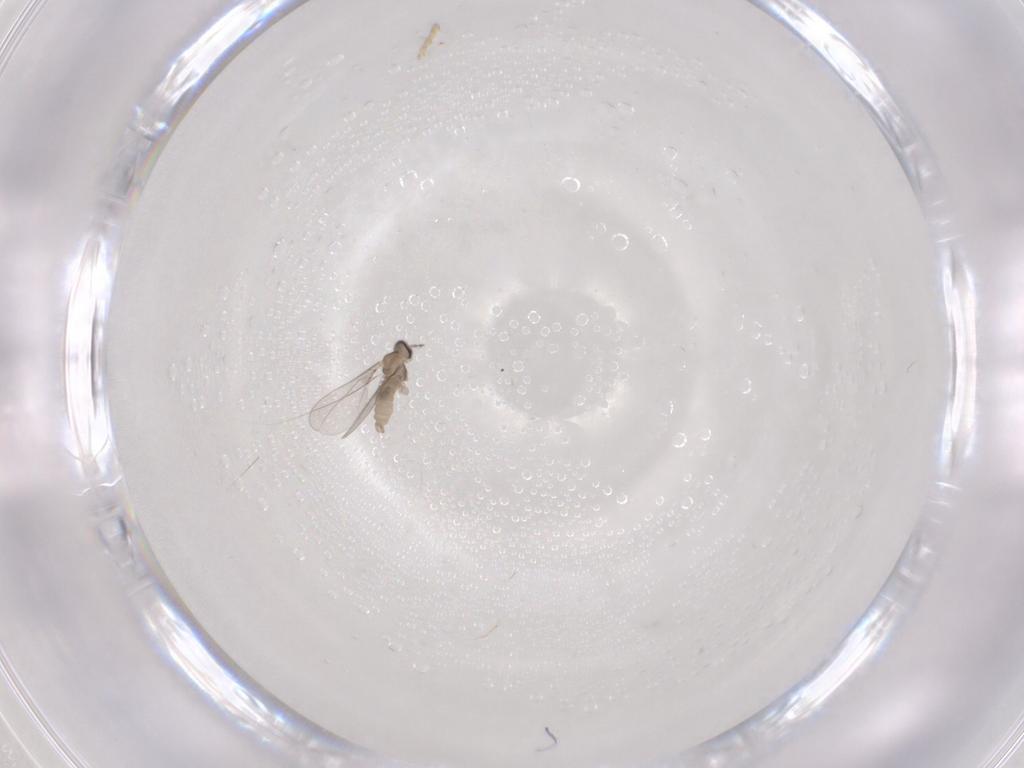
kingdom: Animalia
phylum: Arthropoda
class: Insecta
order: Diptera
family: Cecidomyiidae
